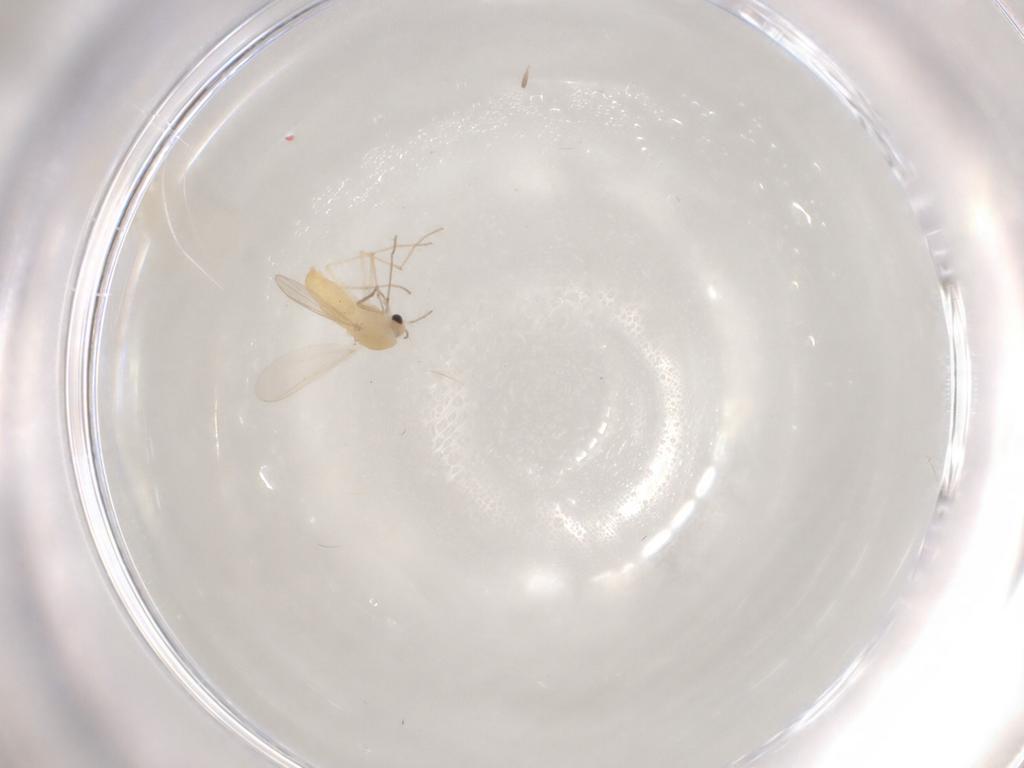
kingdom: Animalia
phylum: Arthropoda
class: Insecta
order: Diptera
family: Chironomidae
